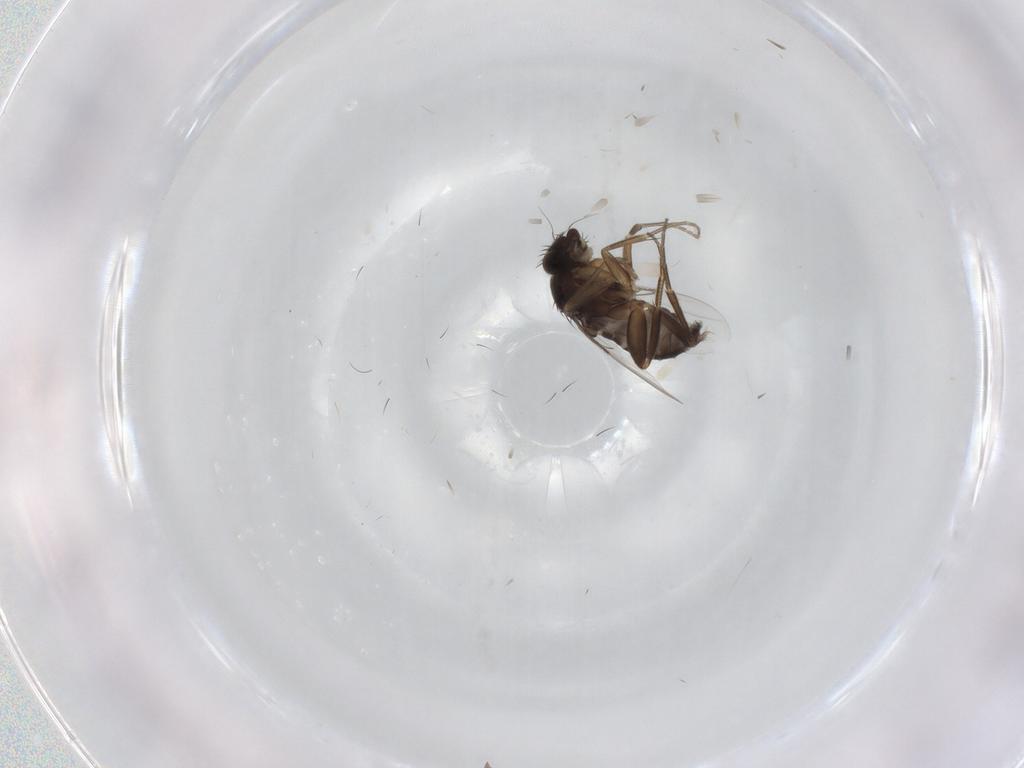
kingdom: Animalia
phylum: Arthropoda
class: Insecta
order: Diptera
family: Phoridae
